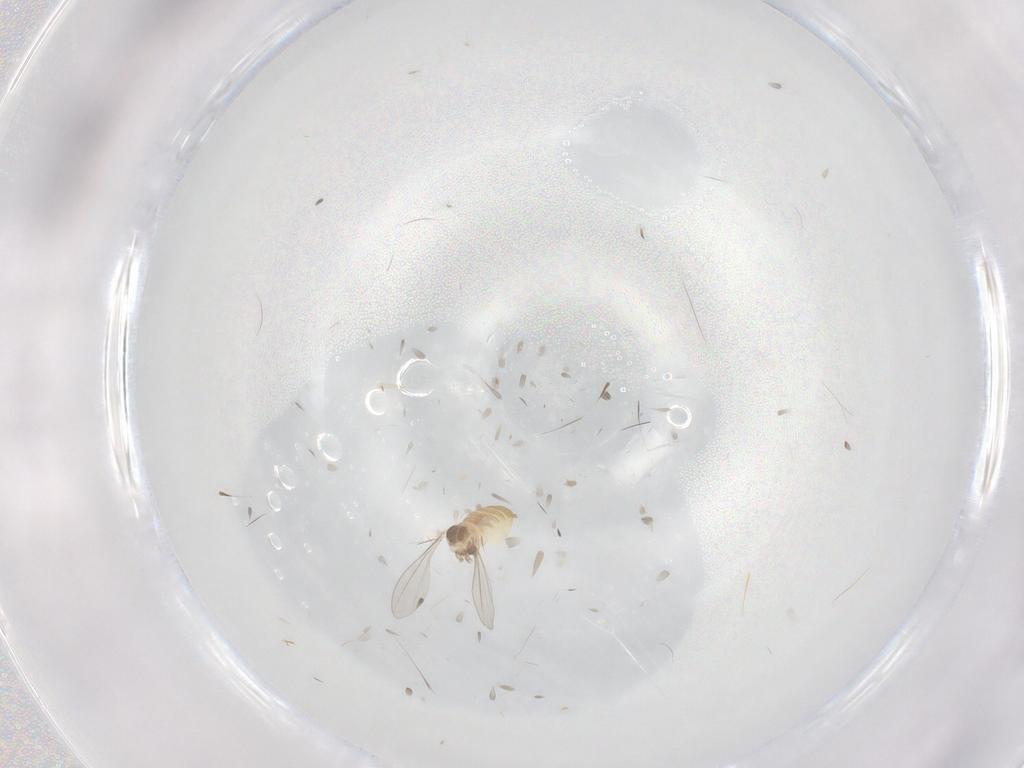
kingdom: Animalia
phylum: Arthropoda
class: Insecta
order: Diptera
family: Cecidomyiidae
